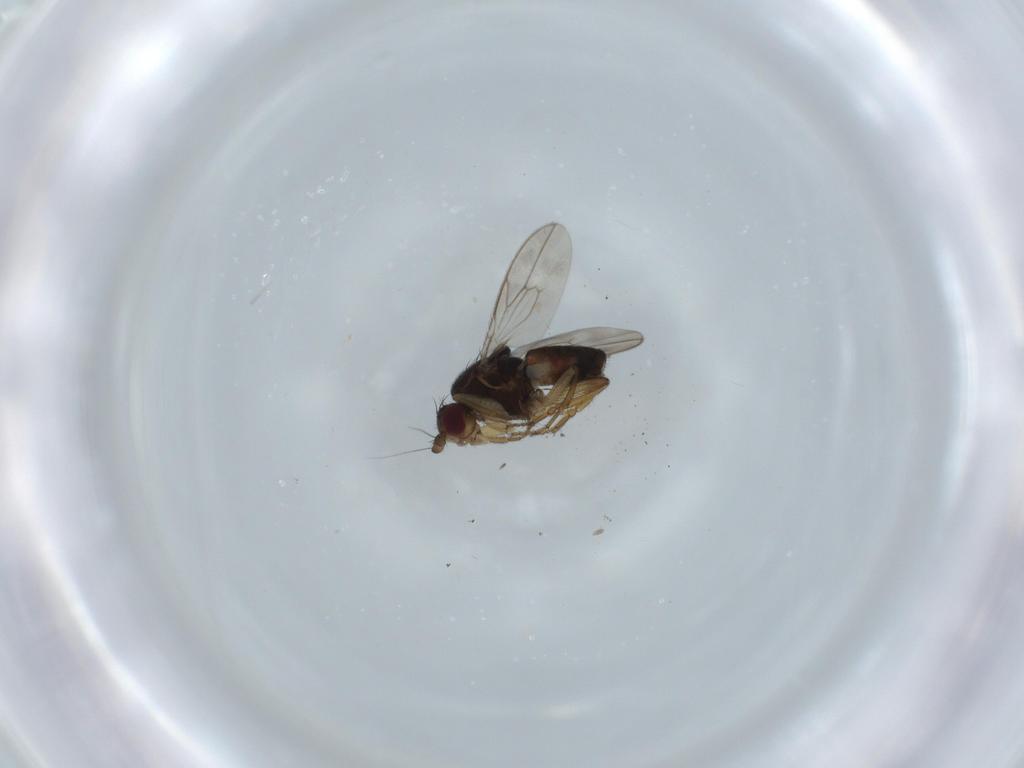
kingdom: Animalia
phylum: Arthropoda
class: Insecta
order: Diptera
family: Sphaeroceridae
